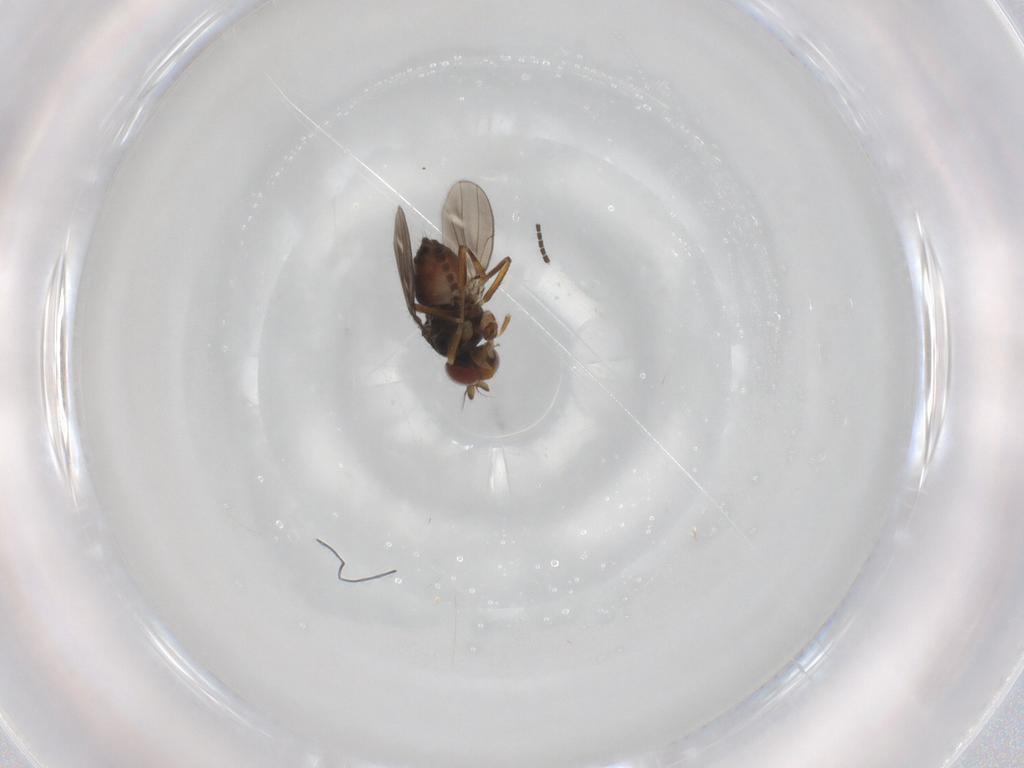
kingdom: Animalia
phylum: Arthropoda
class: Insecta
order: Diptera
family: Ephydridae
